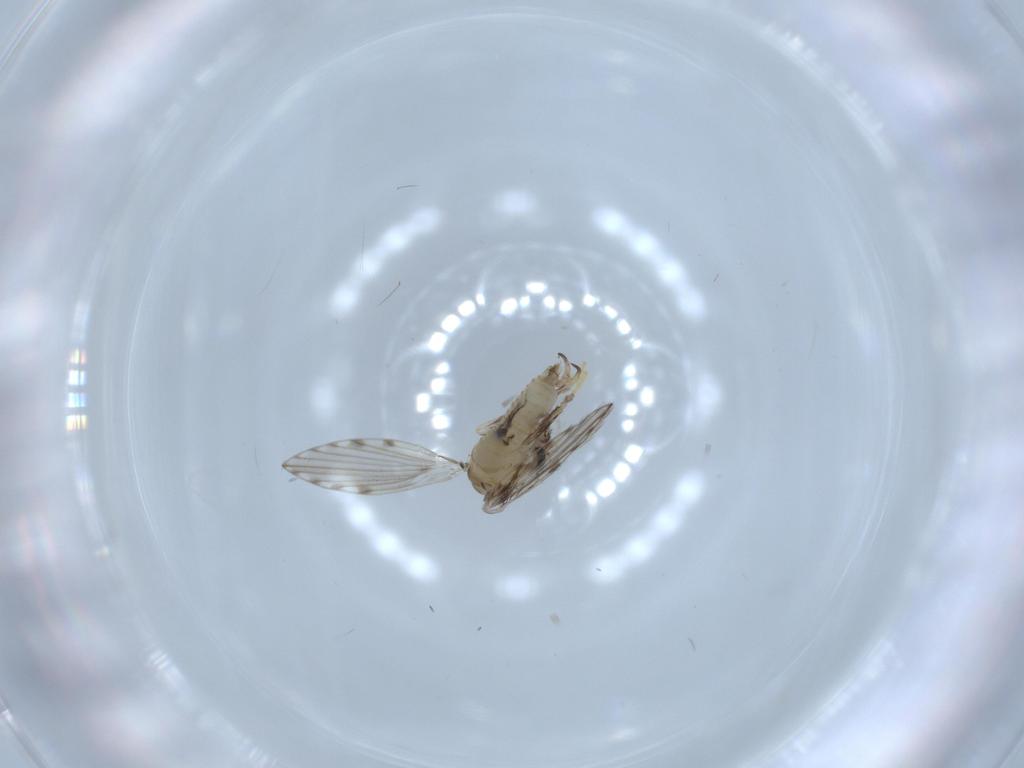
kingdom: Animalia
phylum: Arthropoda
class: Insecta
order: Diptera
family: Psychodidae
